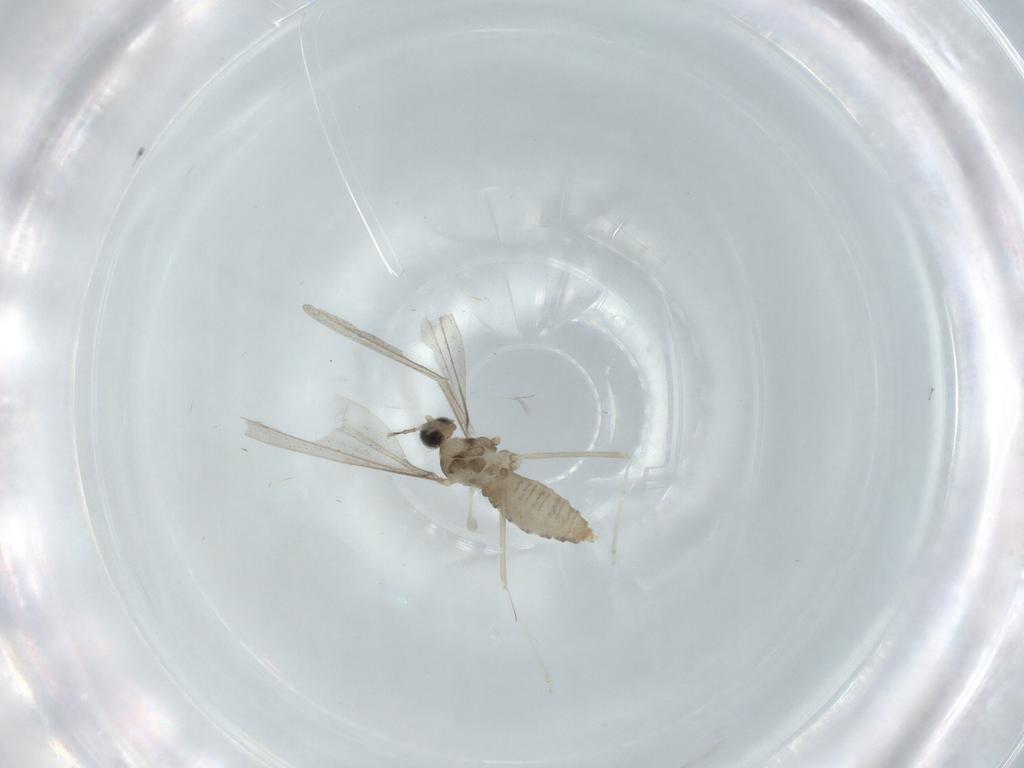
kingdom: Animalia
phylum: Arthropoda
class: Insecta
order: Diptera
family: Cecidomyiidae
